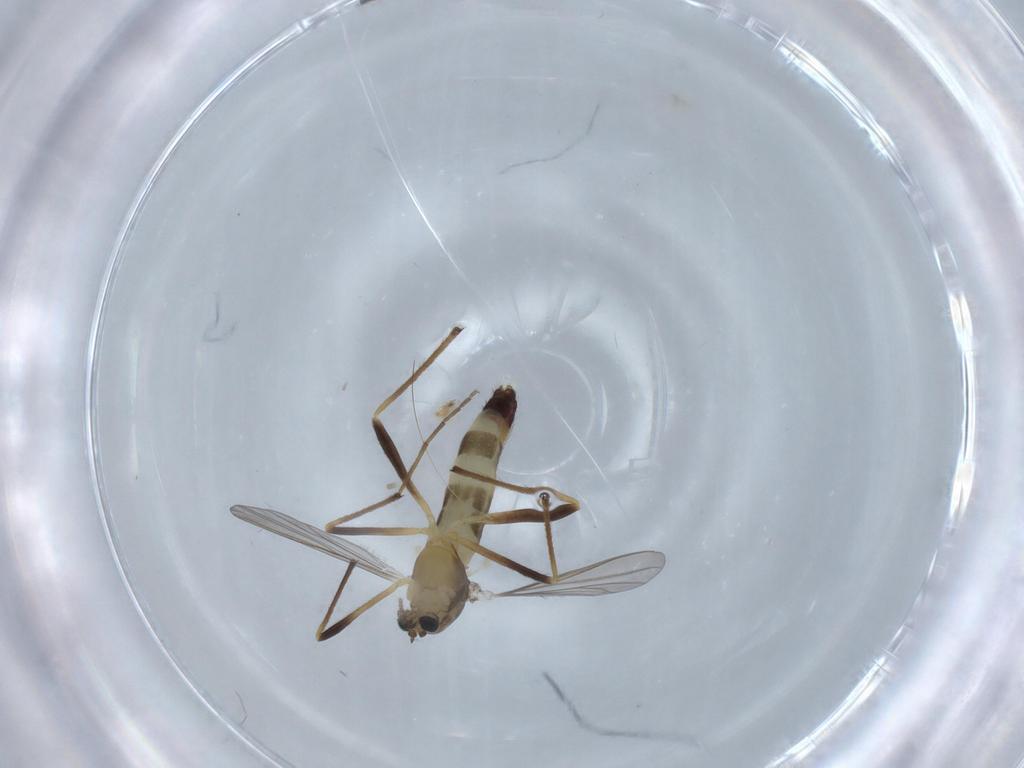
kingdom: Animalia
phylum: Arthropoda
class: Insecta
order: Diptera
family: Chironomidae
